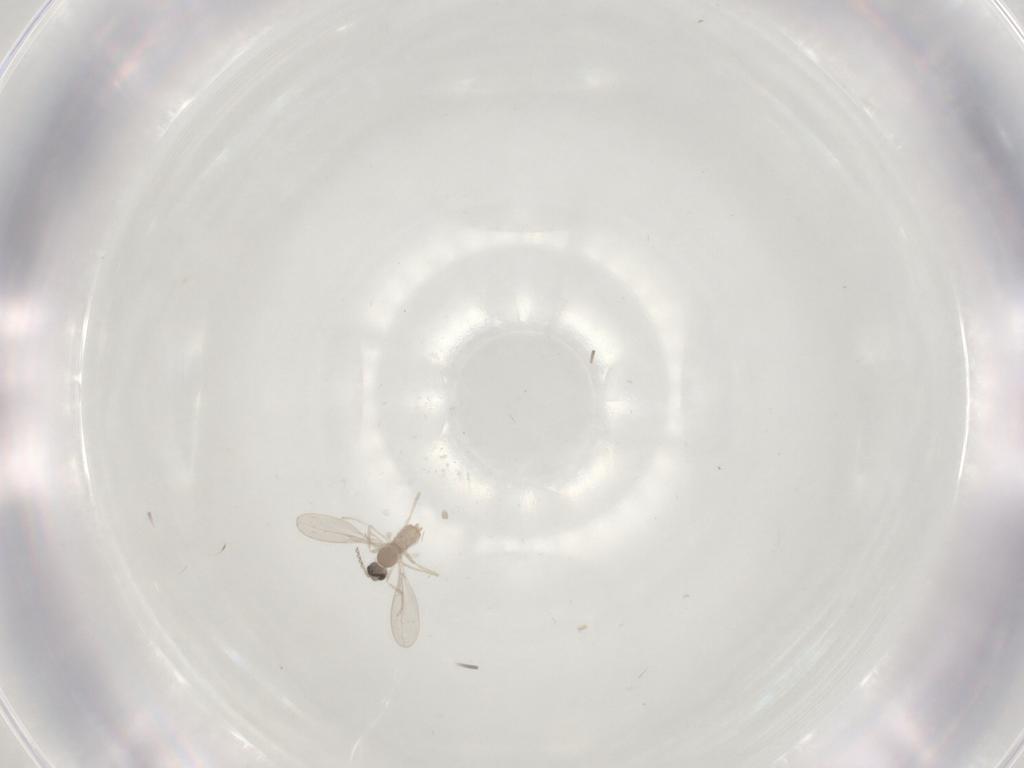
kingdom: Animalia
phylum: Arthropoda
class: Insecta
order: Diptera
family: Cecidomyiidae
